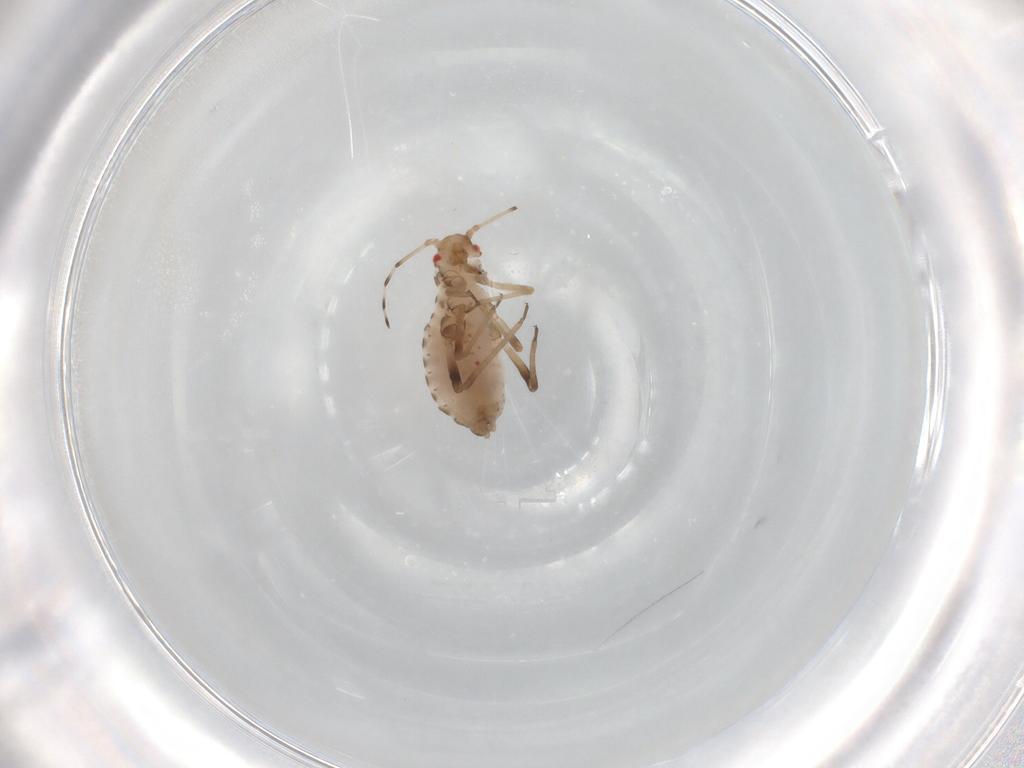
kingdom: Animalia
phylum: Arthropoda
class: Insecta
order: Hemiptera
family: Aphididae
